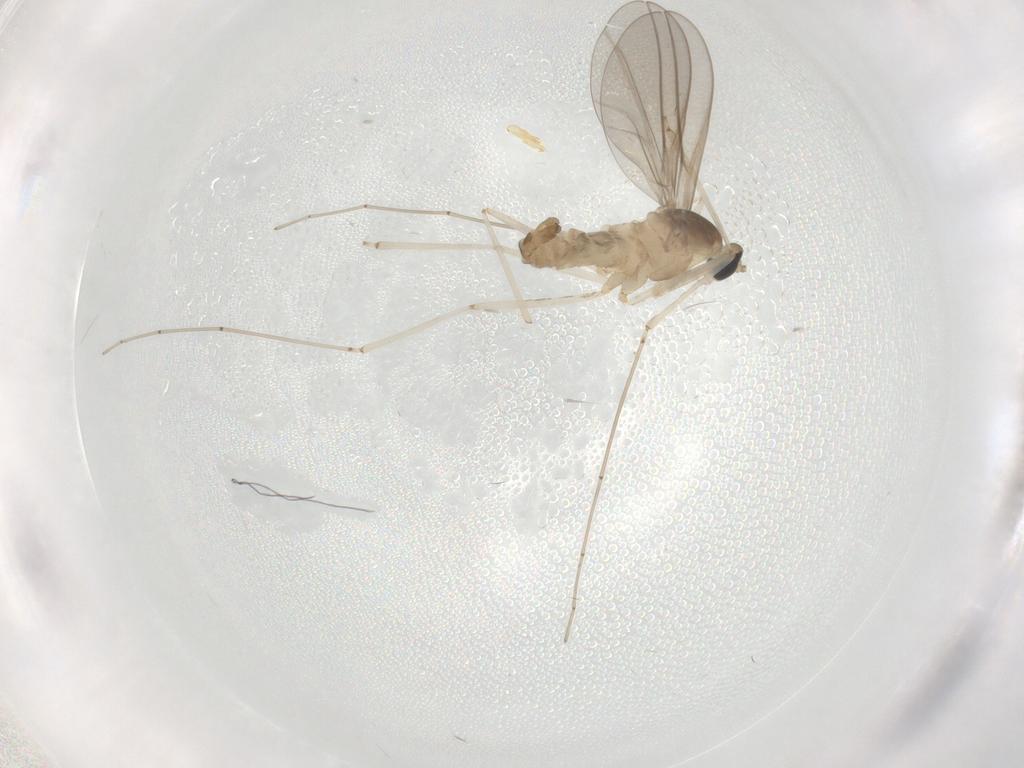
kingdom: Animalia
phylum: Arthropoda
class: Insecta
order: Diptera
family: Cecidomyiidae
